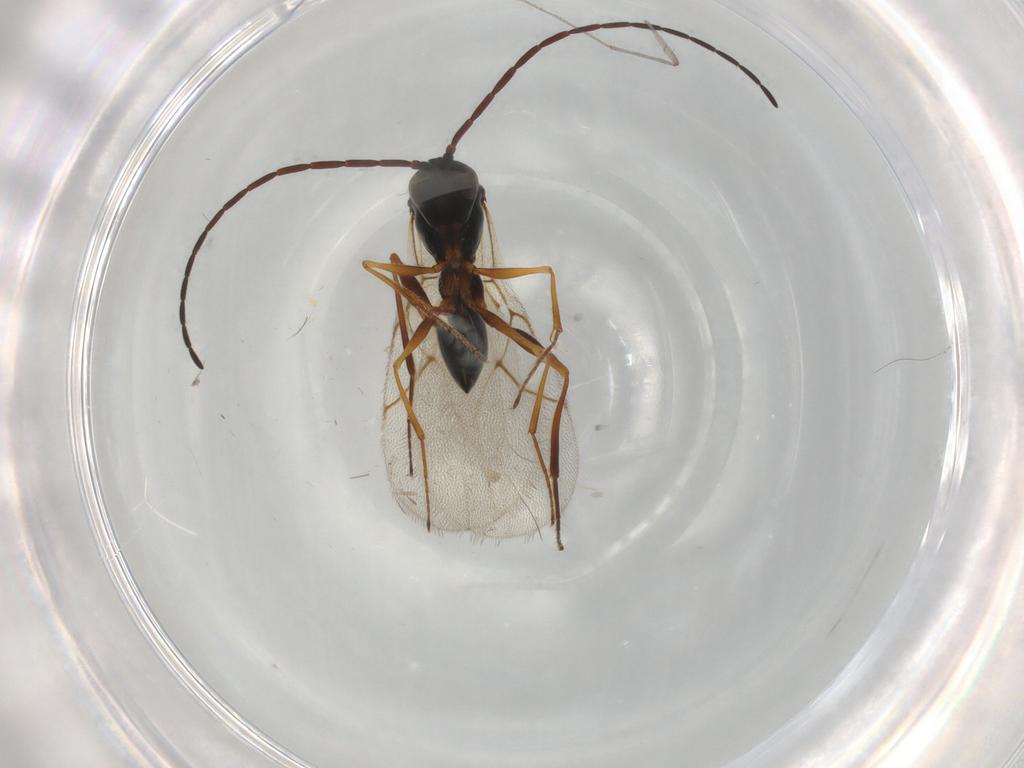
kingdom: Animalia
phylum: Arthropoda
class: Insecta
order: Hymenoptera
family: Figitidae
